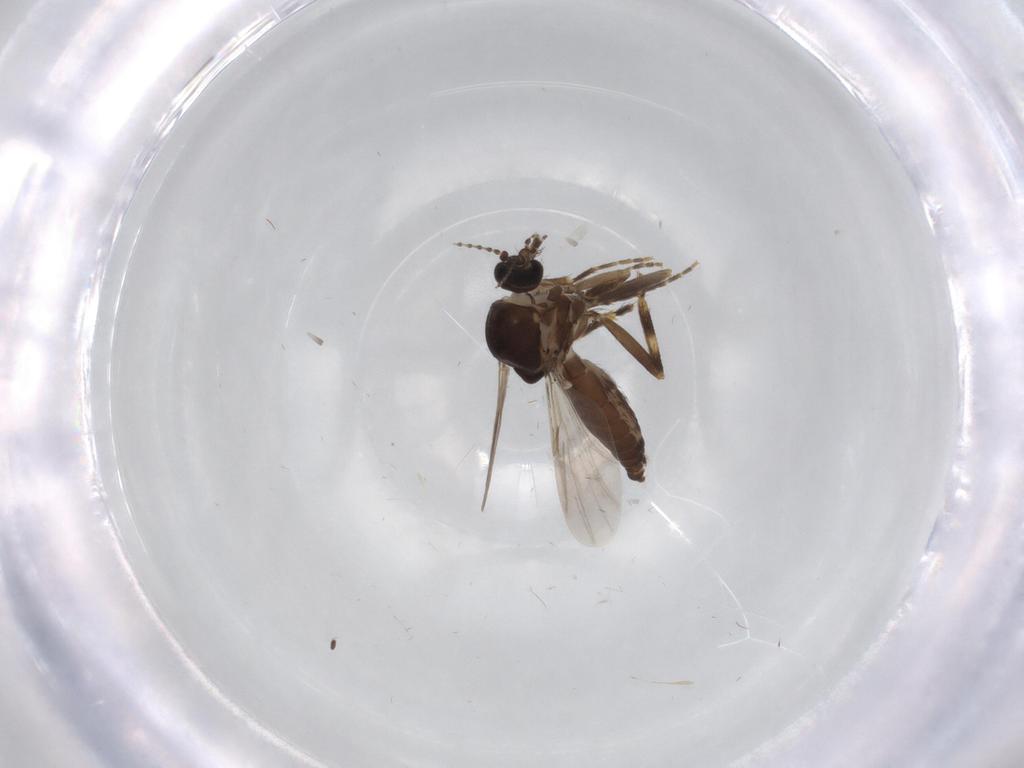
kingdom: Animalia
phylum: Arthropoda
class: Insecta
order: Diptera
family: Ceratopogonidae
